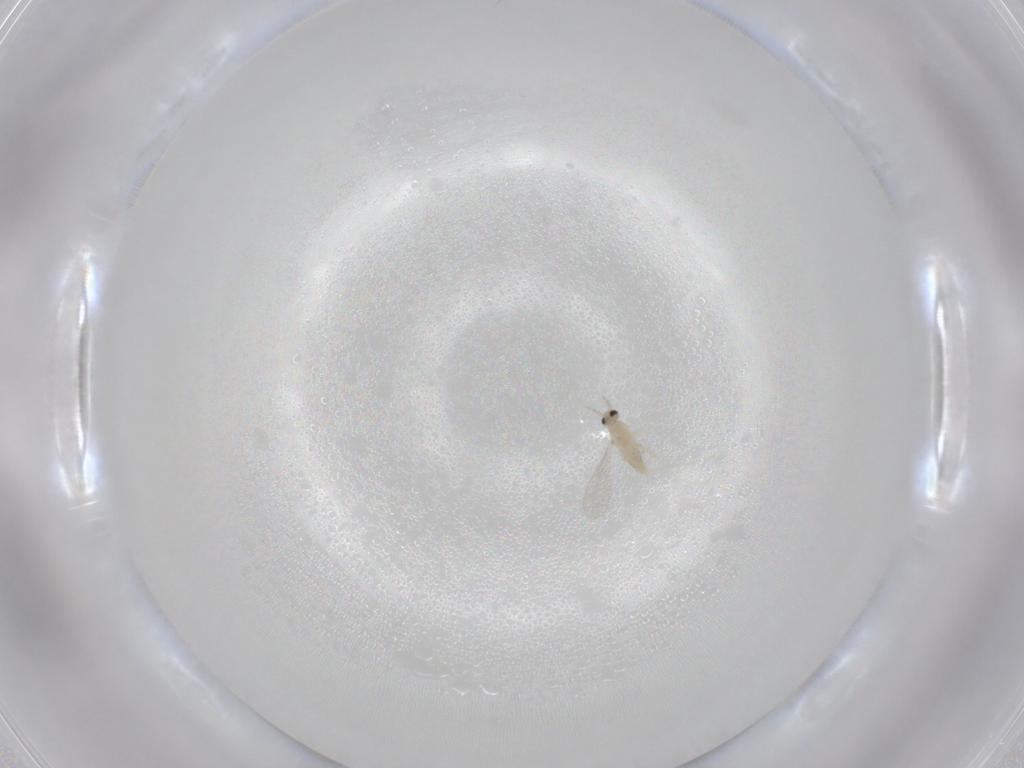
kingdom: Animalia
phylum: Arthropoda
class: Insecta
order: Diptera
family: Cecidomyiidae
